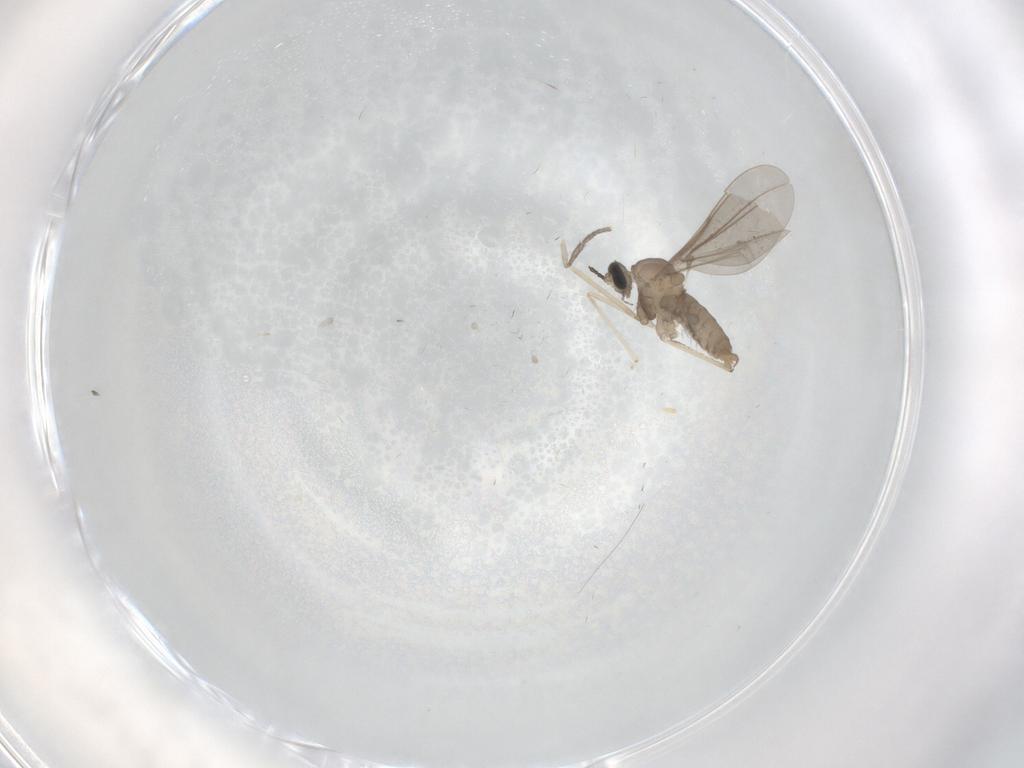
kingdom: Animalia
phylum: Arthropoda
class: Insecta
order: Diptera
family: Psychodidae
